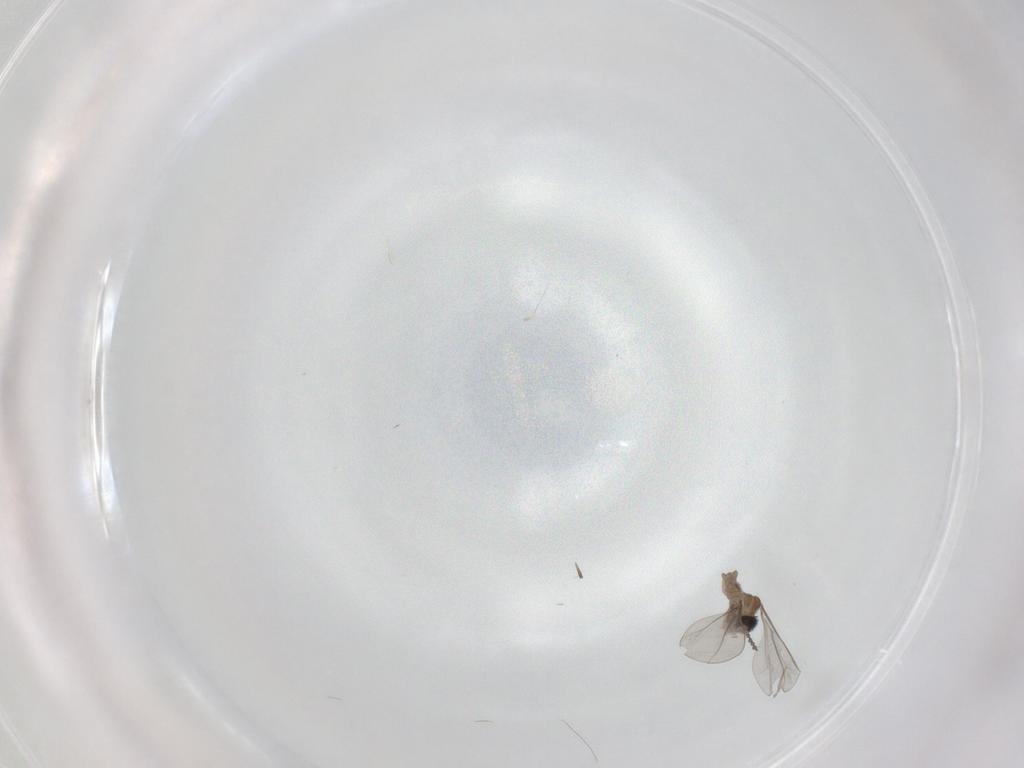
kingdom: Animalia
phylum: Arthropoda
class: Insecta
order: Diptera
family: Cecidomyiidae
